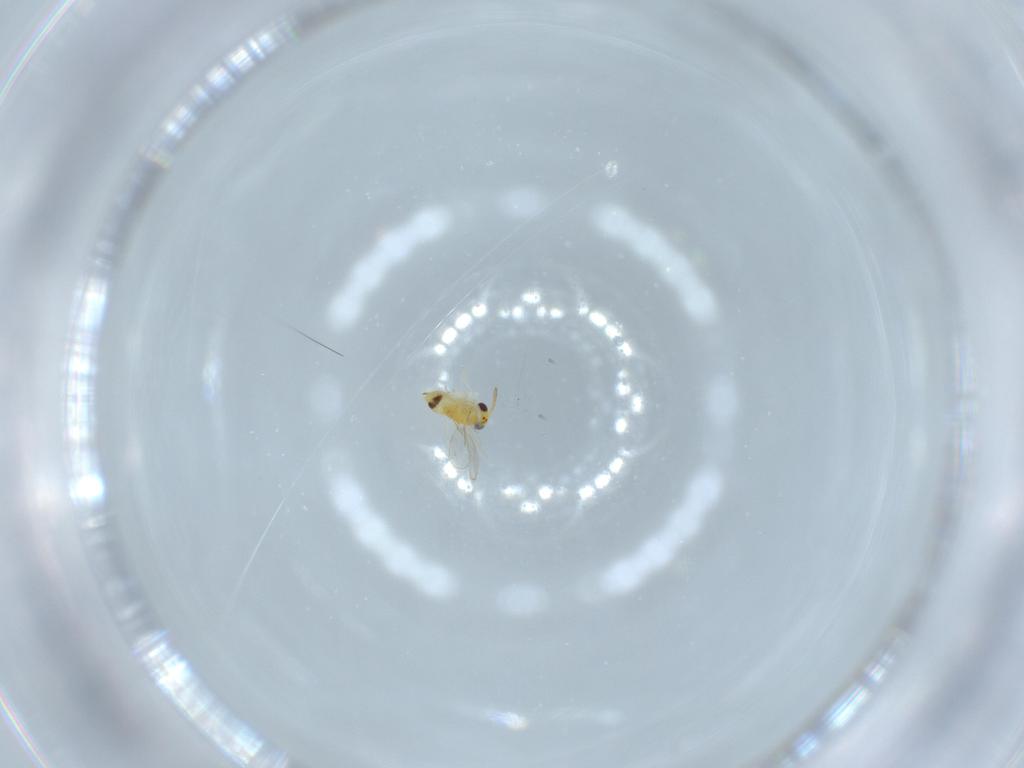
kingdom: Animalia
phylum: Arthropoda
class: Insecta
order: Hymenoptera
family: Aphelinidae
